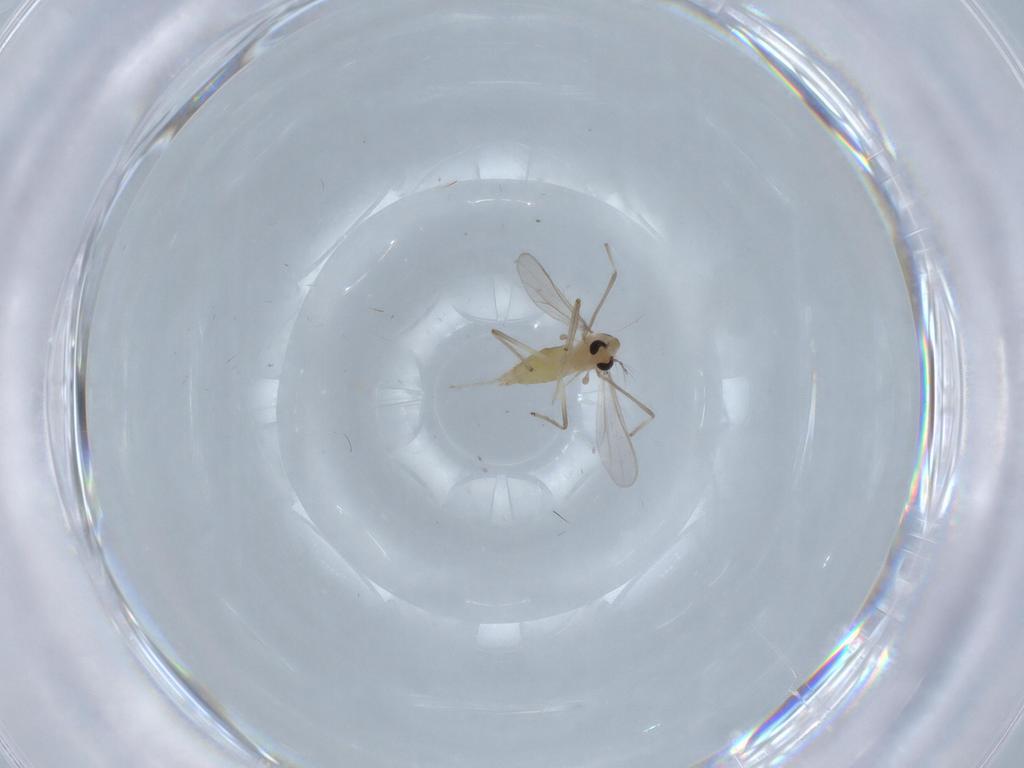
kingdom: Animalia
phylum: Arthropoda
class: Insecta
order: Diptera
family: Chironomidae
